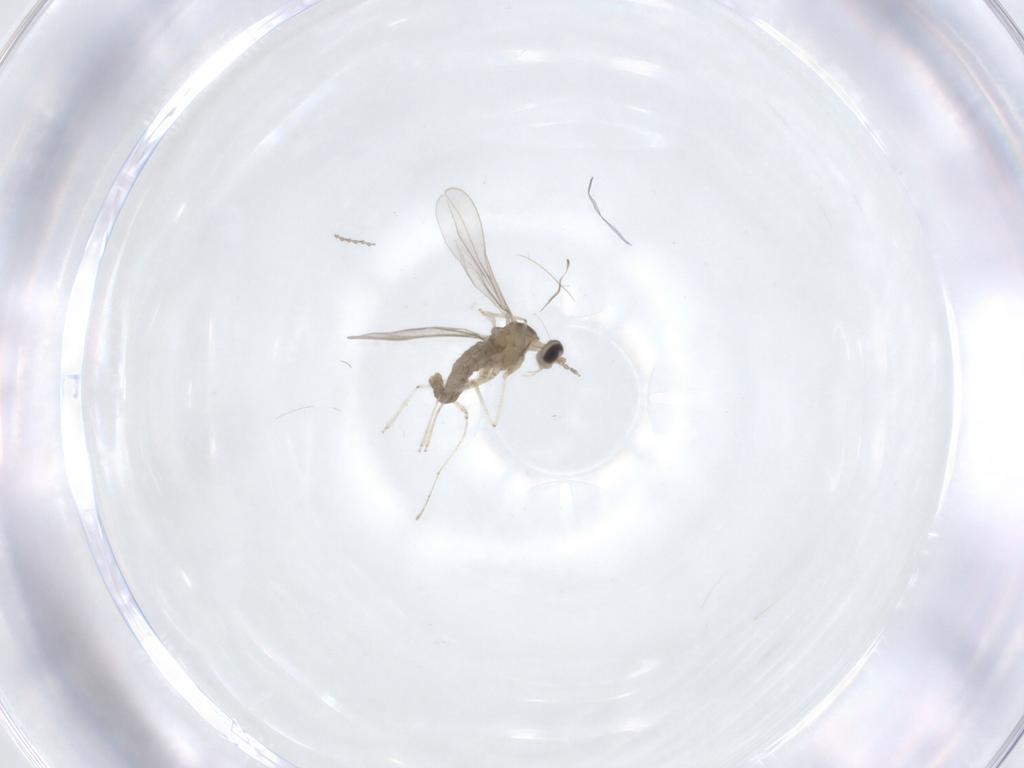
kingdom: Animalia
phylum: Arthropoda
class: Insecta
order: Diptera
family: Cecidomyiidae
